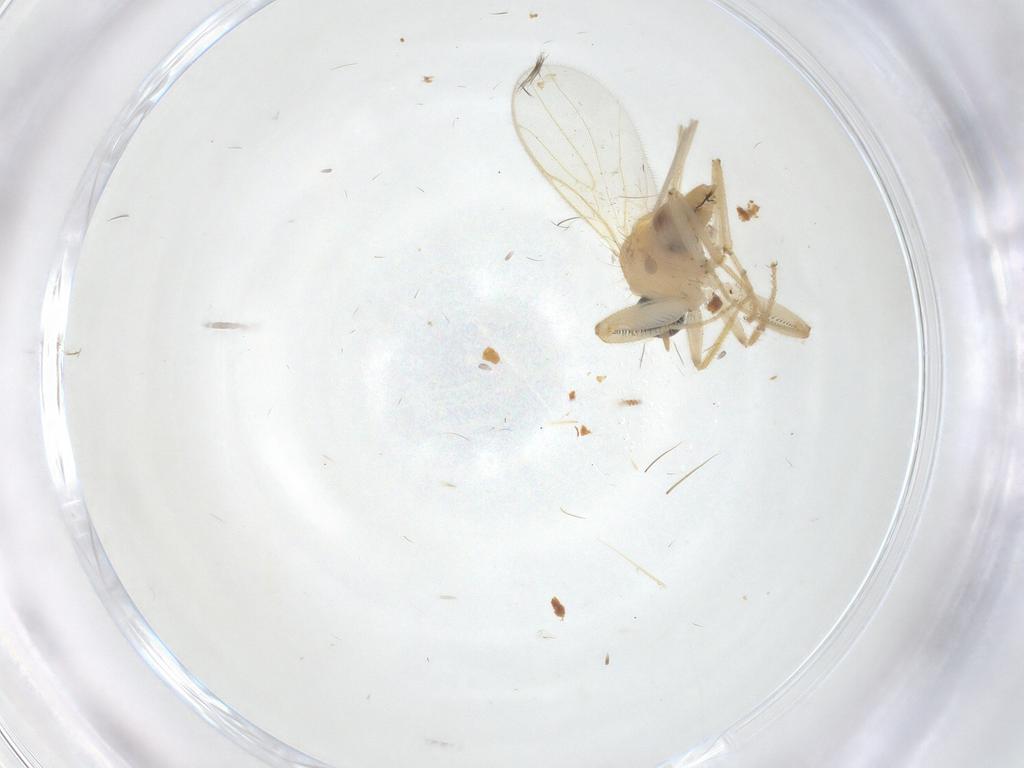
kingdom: Animalia
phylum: Arthropoda
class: Insecta
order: Diptera
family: Cecidomyiidae
